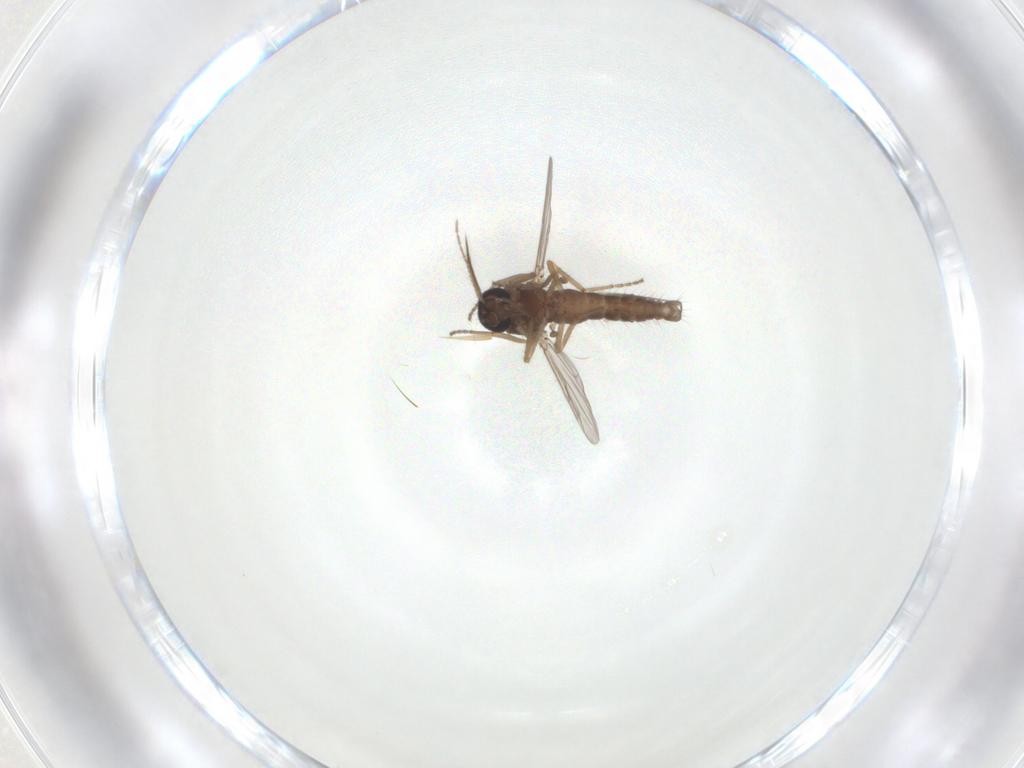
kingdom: Animalia
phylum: Arthropoda
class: Insecta
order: Diptera
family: Ceratopogonidae
